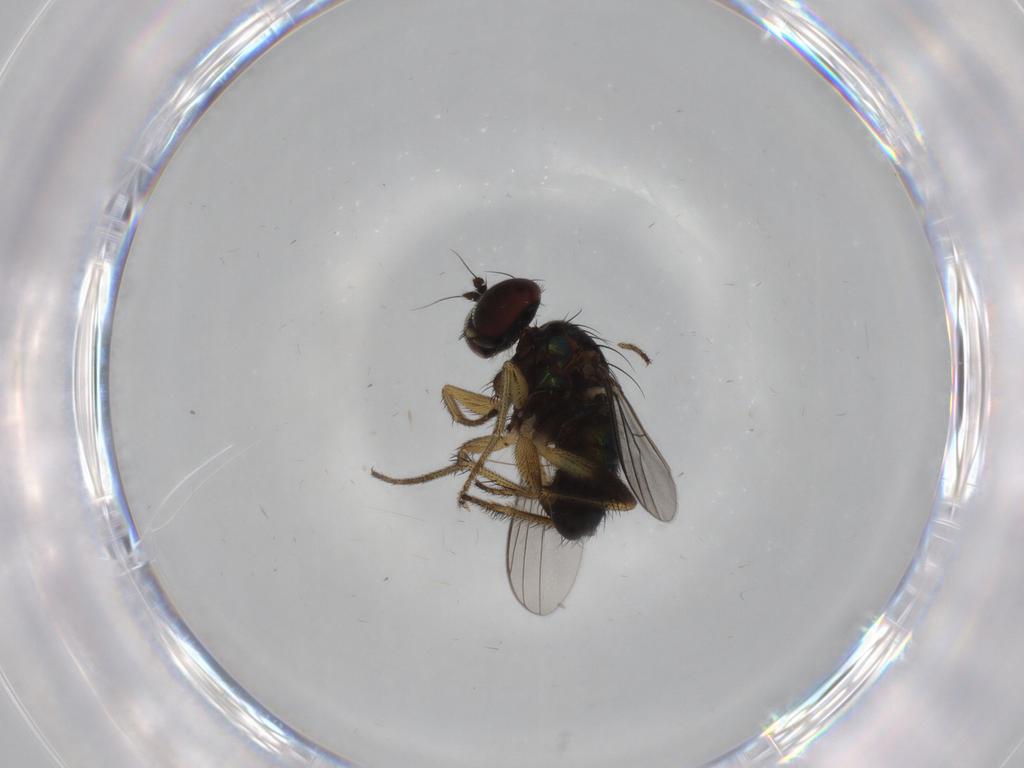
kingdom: Animalia
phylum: Arthropoda
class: Insecta
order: Diptera
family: Dolichopodidae
